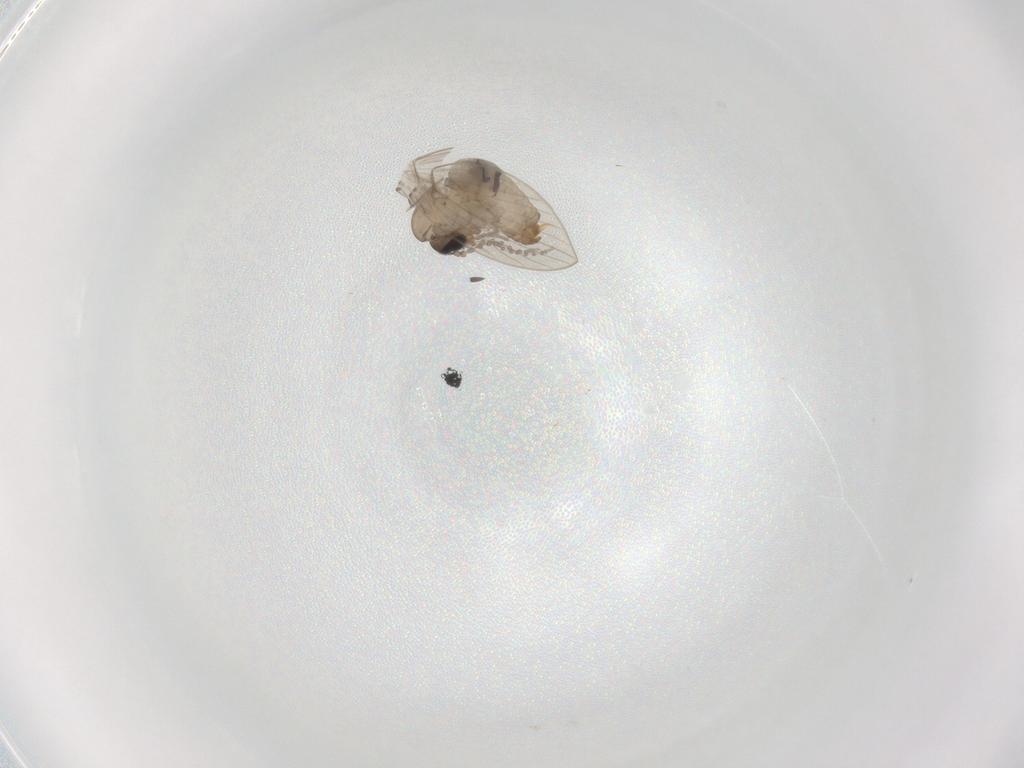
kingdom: Animalia
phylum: Arthropoda
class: Insecta
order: Diptera
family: Psychodidae
